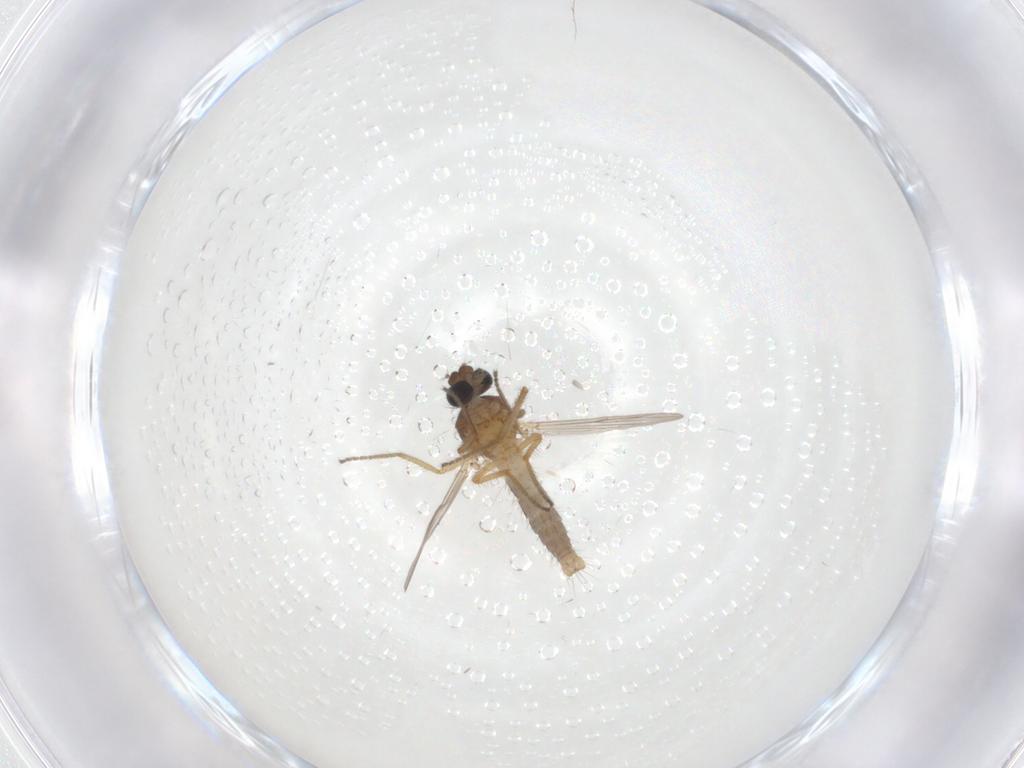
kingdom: Animalia
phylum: Arthropoda
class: Insecta
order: Diptera
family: Ceratopogonidae
